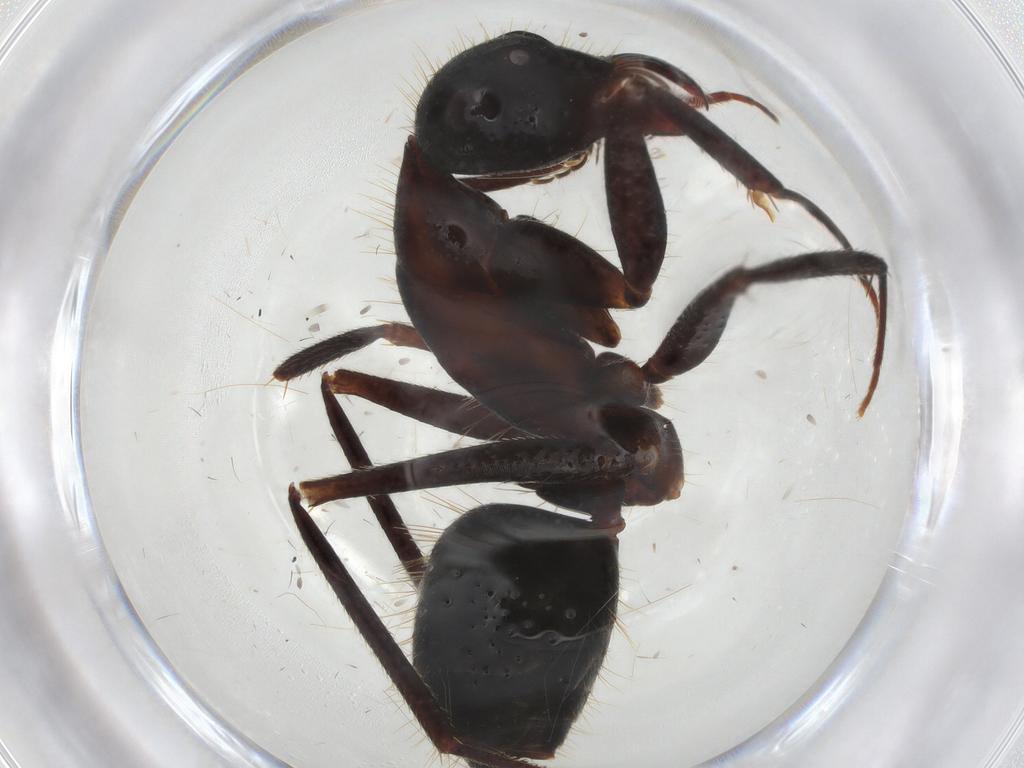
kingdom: Animalia
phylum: Arthropoda
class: Insecta
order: Hymenoptera
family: Formicidae
